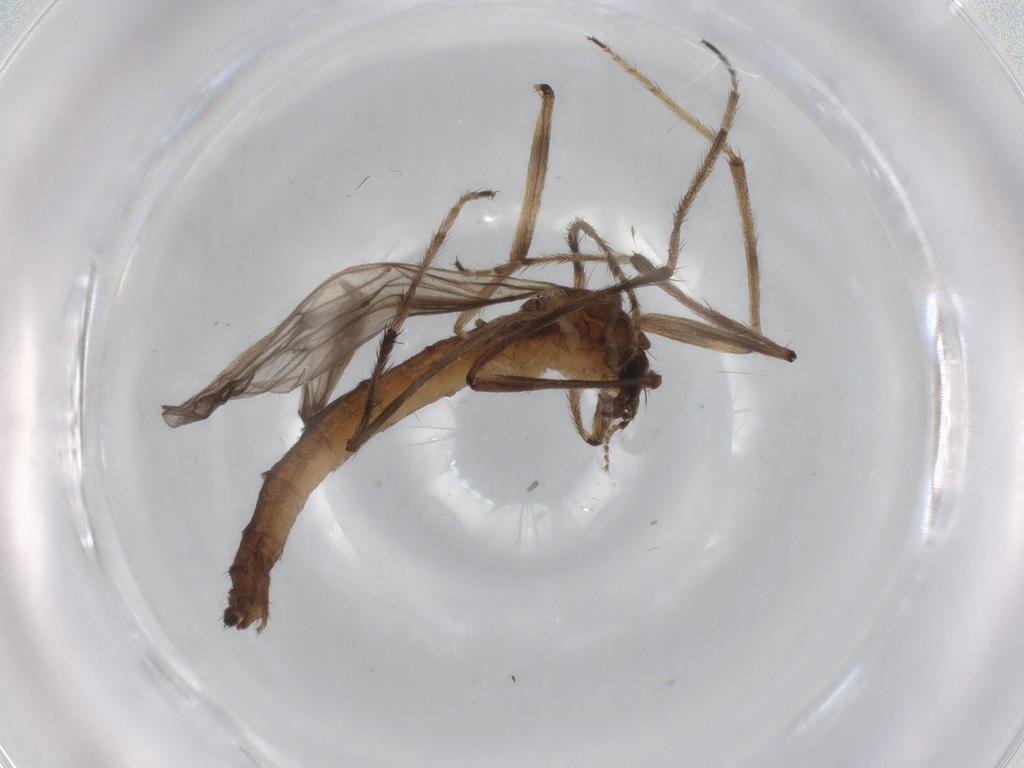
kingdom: Animalia
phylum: Arthropoda
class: Insecta
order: Diptera
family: Limoniidae
